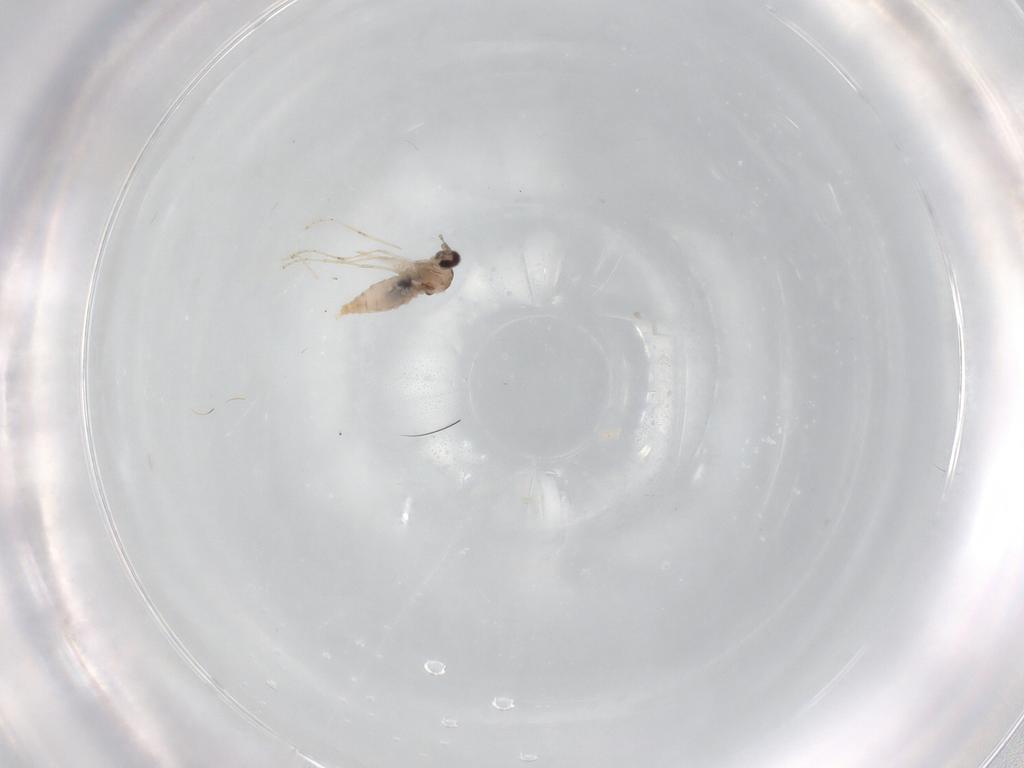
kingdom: Animalia
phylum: Arthropoda
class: Insecta
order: Diptera
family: Cecidomyiidae
